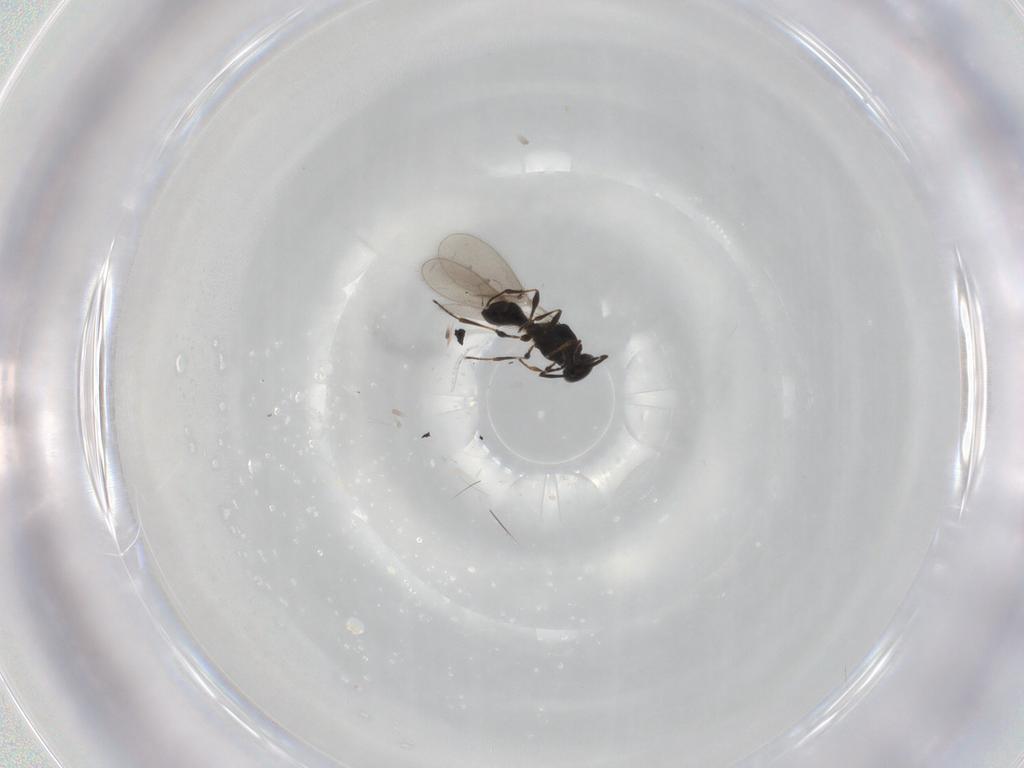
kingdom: Animalia
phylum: Arthropoda
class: Insecta
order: Hymenoptera
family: Platygastridae
